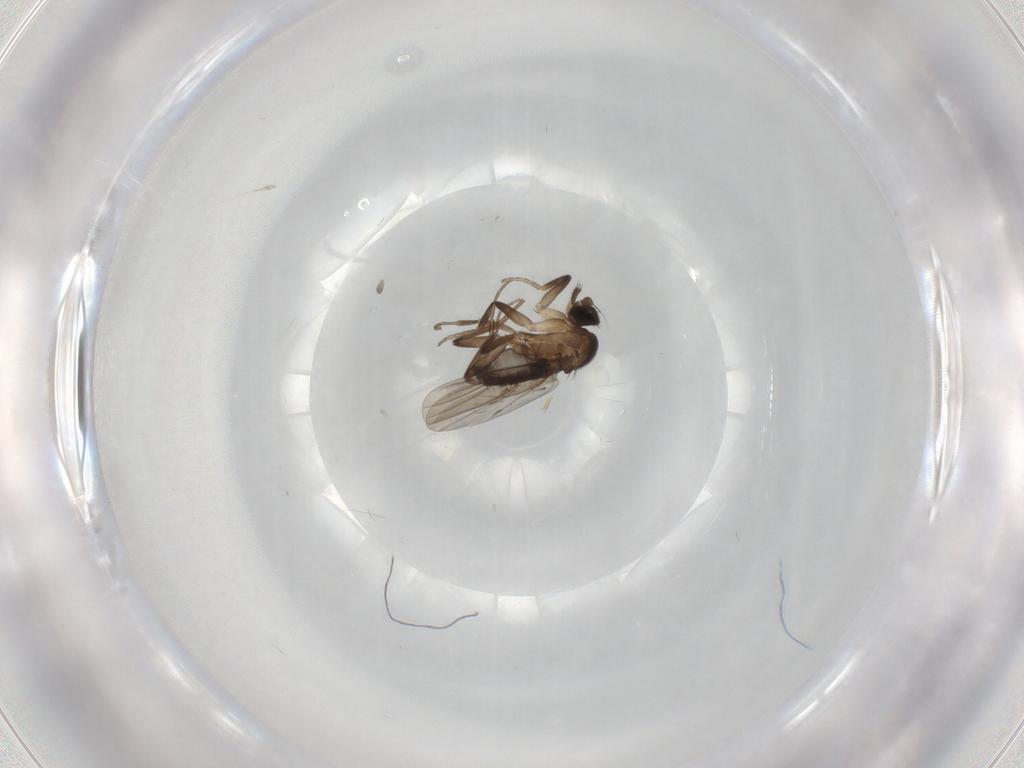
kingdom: Animalia
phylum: Arthropoda
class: Insecta
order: Diptera
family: Phoridae
